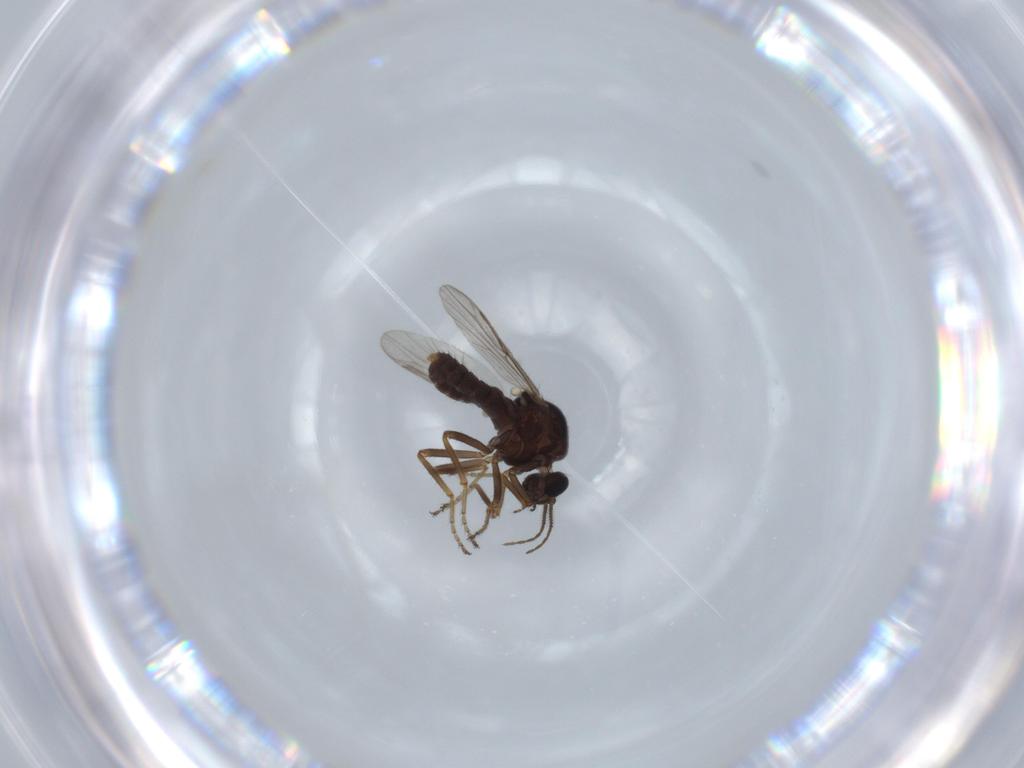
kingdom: Animalia
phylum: Arthropoda
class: Insecta
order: Diptera
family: Ceratopogonidae
